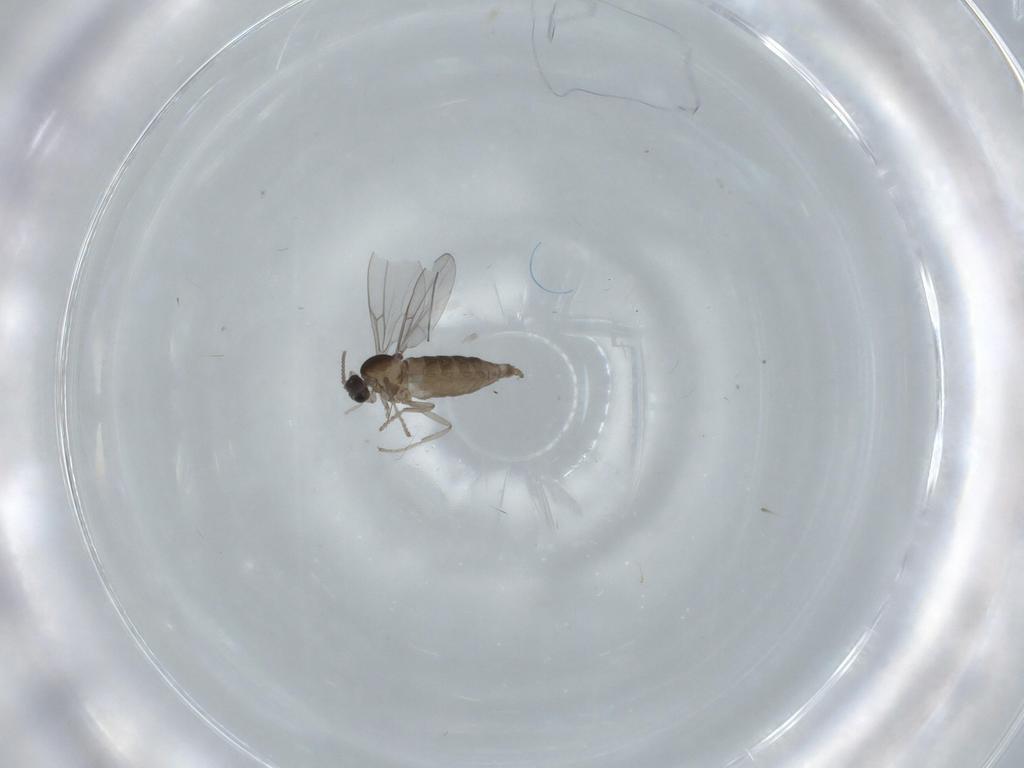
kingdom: Animalia
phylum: Arthropoda
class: Insecta
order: Diptera
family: Cecidomyiidae
